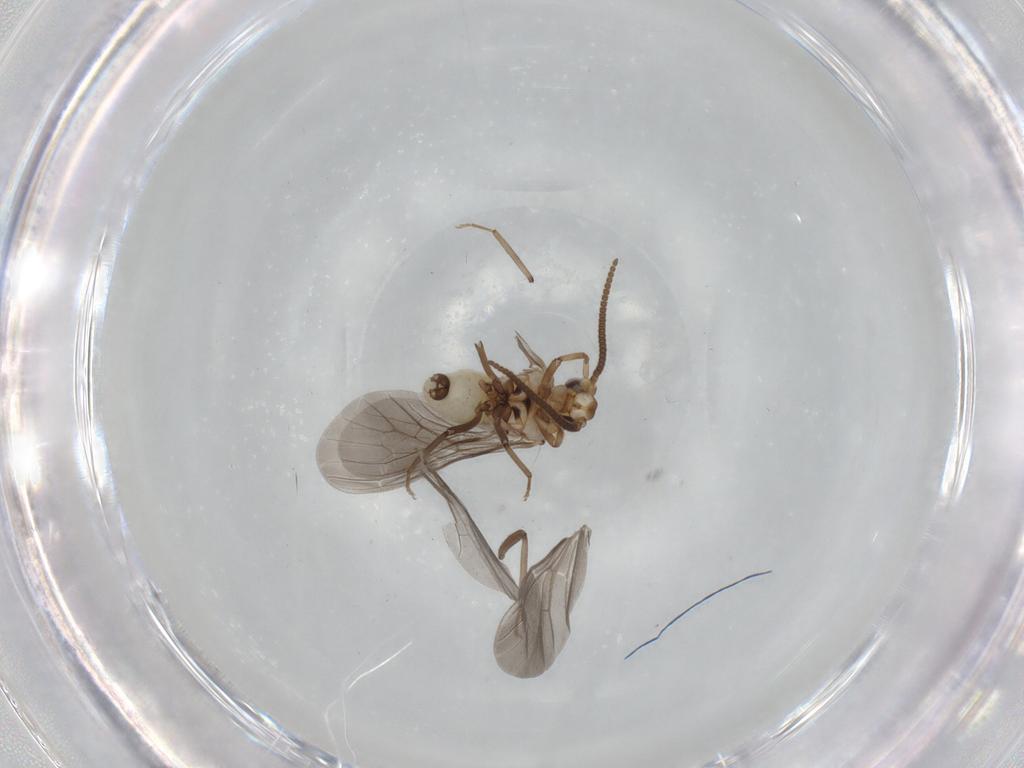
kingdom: Animalia
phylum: Arthropoda
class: Insecta
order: Neuroptera
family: Coniopterygidae
